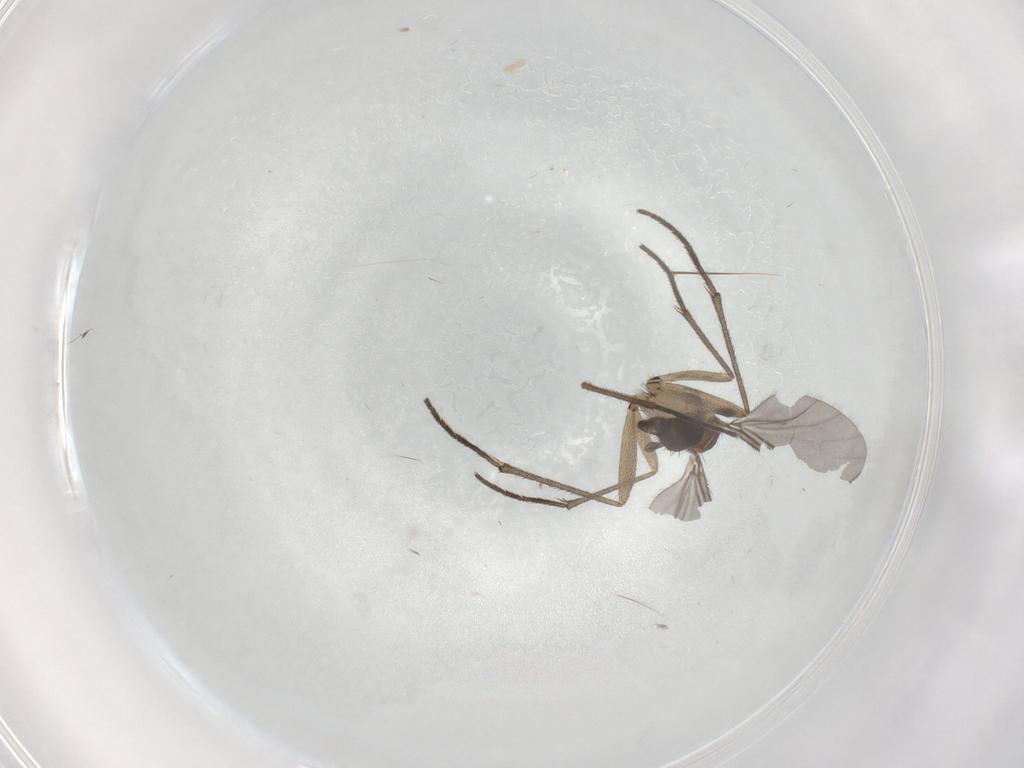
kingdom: Animalia
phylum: Arthropoda
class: Insecta
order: Diptera
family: Sciaridae
